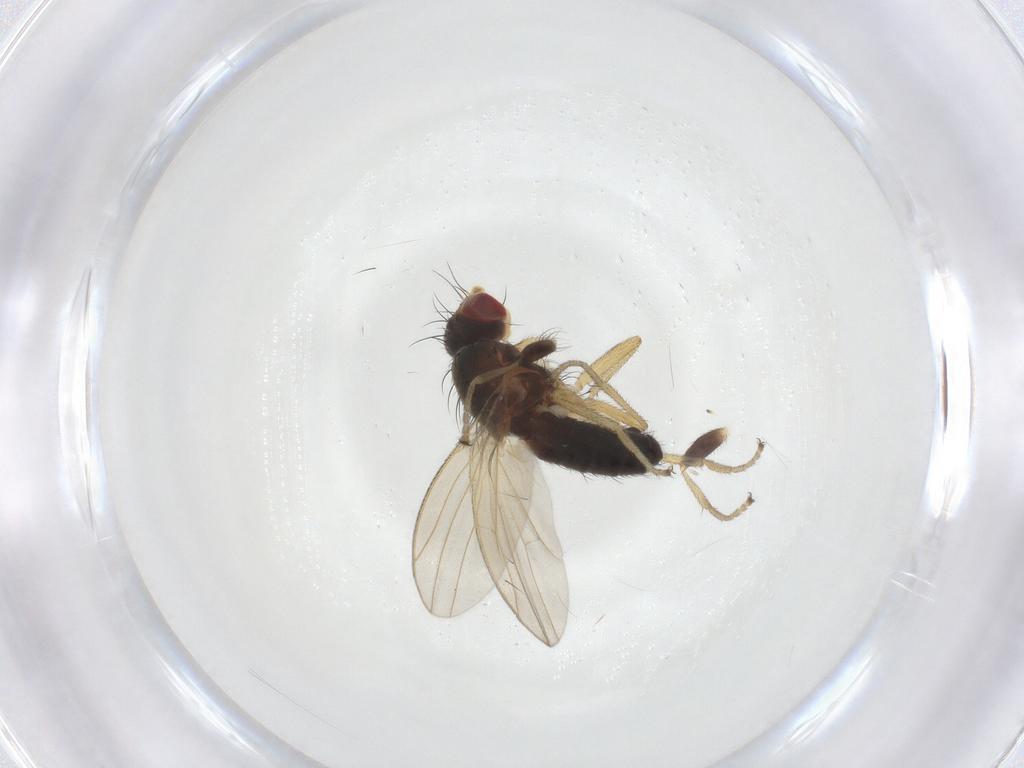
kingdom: Animalia
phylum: Arthropoda
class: Insecta
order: Diptera
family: Heleomyzidae
